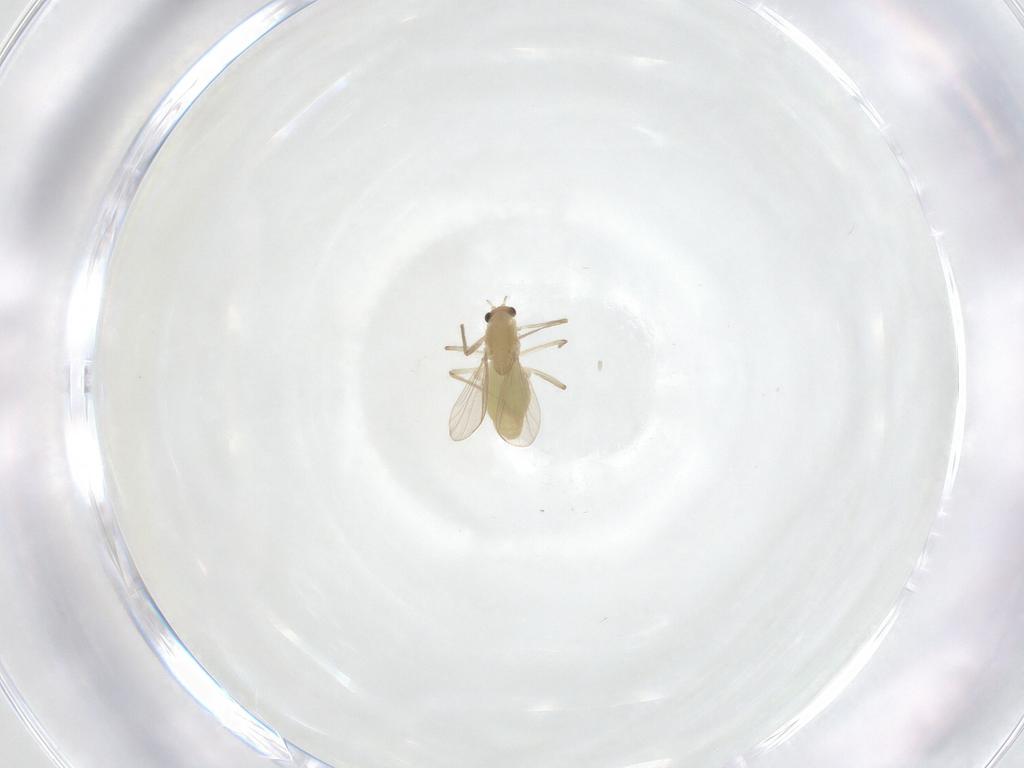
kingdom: Animalia
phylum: Arthropoda
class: Insecta
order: Diptera
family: Chironomidae
